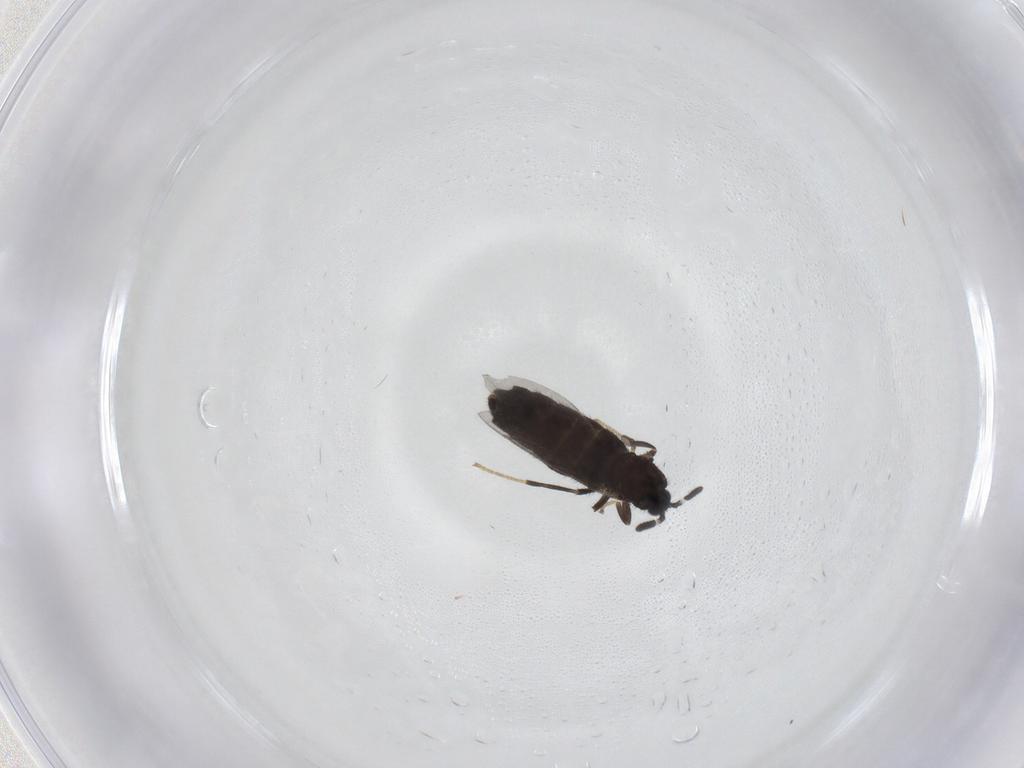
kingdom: Animalia
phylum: Arthropoda
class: Insecta
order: Diptera
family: Scatopsidae
